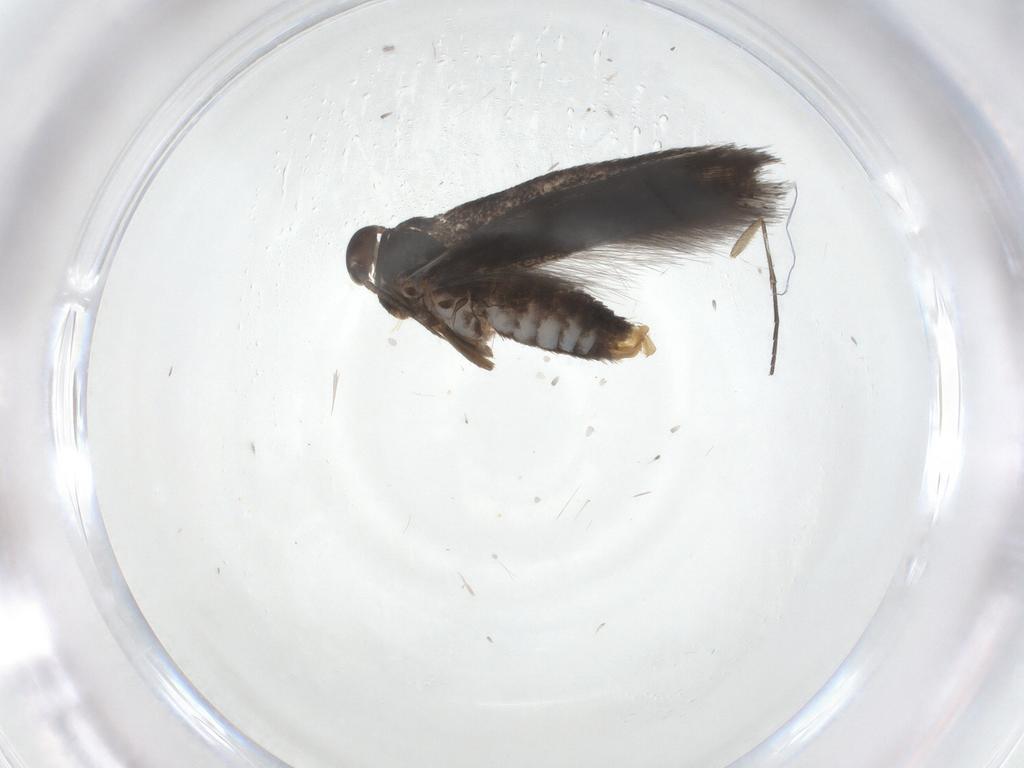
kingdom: Animalia
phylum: Arthropoda
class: Insecta
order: Lepidoptera
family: Elachistidae
